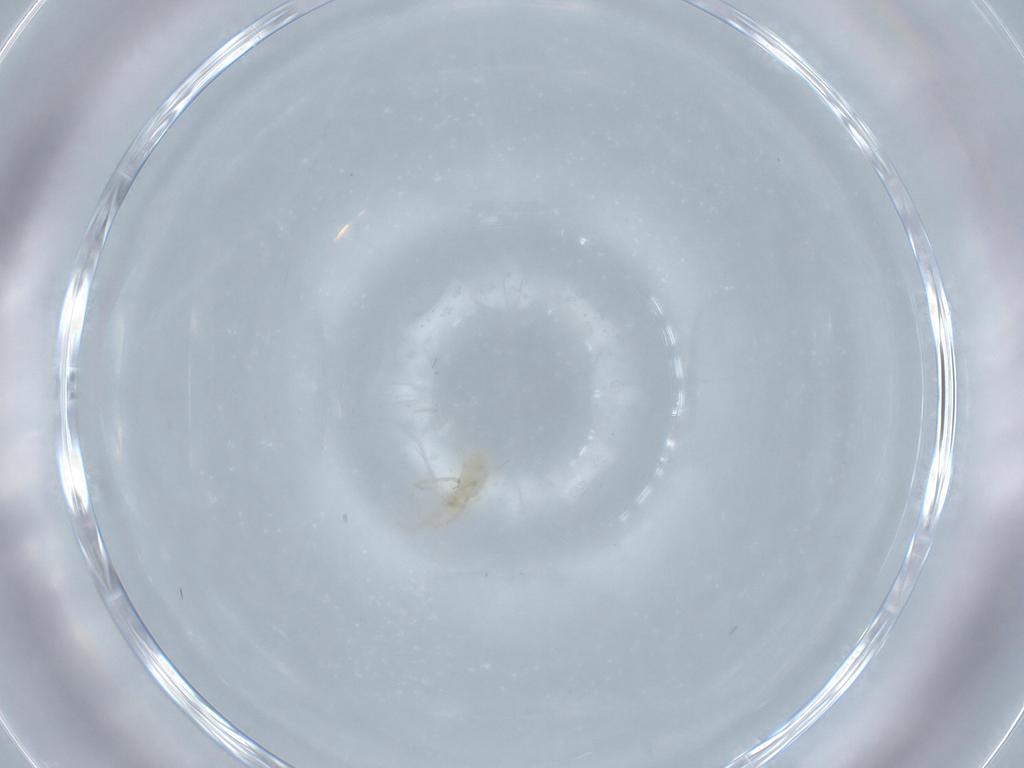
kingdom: Animalia
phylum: Arthropoda
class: Arachnida
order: Trombidiformes
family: Erythraeidae
